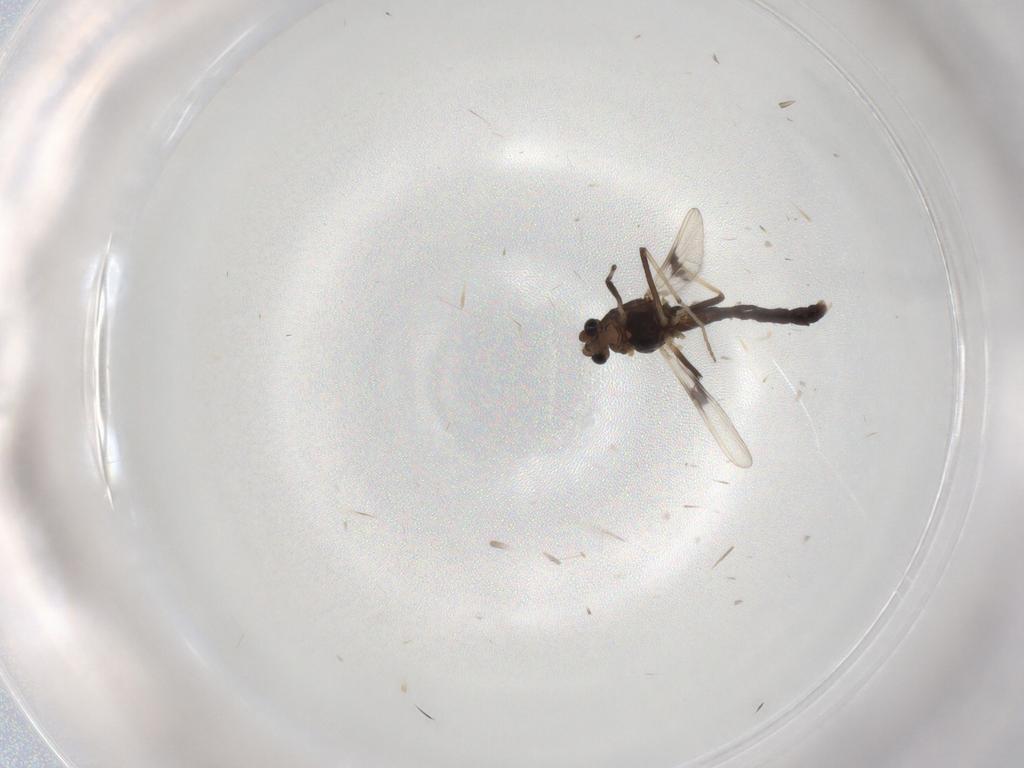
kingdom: Animalia
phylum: Arthropoda
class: Insecta
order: Diptera
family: Chironomidae
